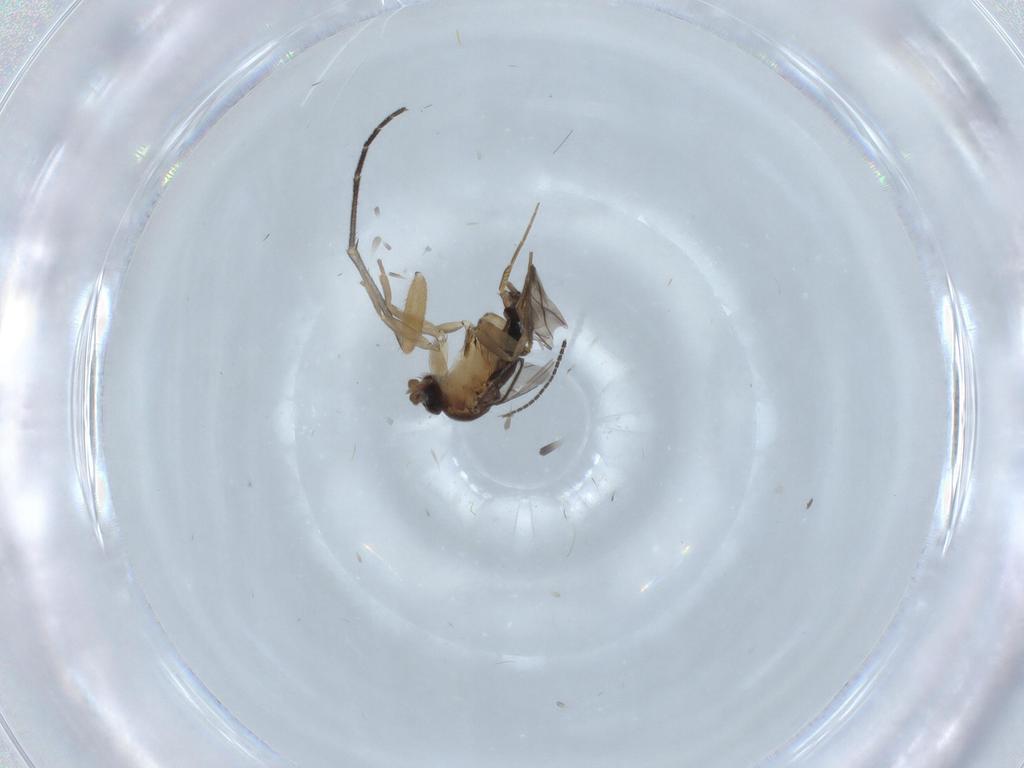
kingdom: Animalia
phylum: Arthropoda
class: Insecta
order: Diptera
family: Sciaridae
